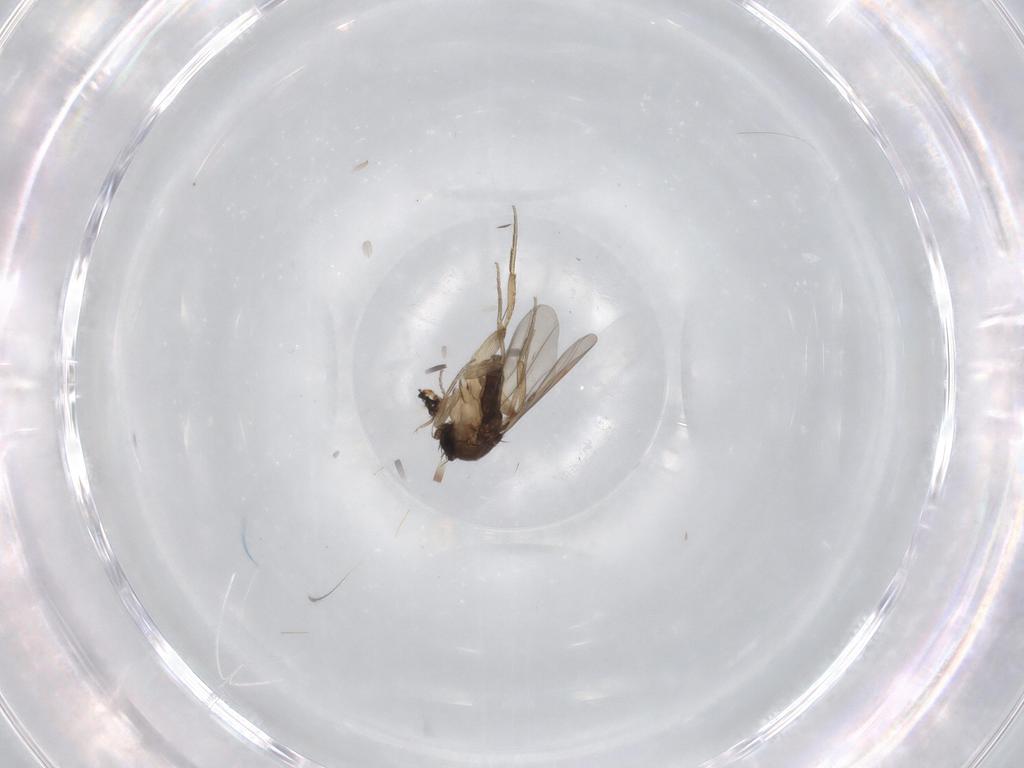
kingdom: Animalia
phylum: Arthropoda
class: Insecta
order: Diptera
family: Phoridae
